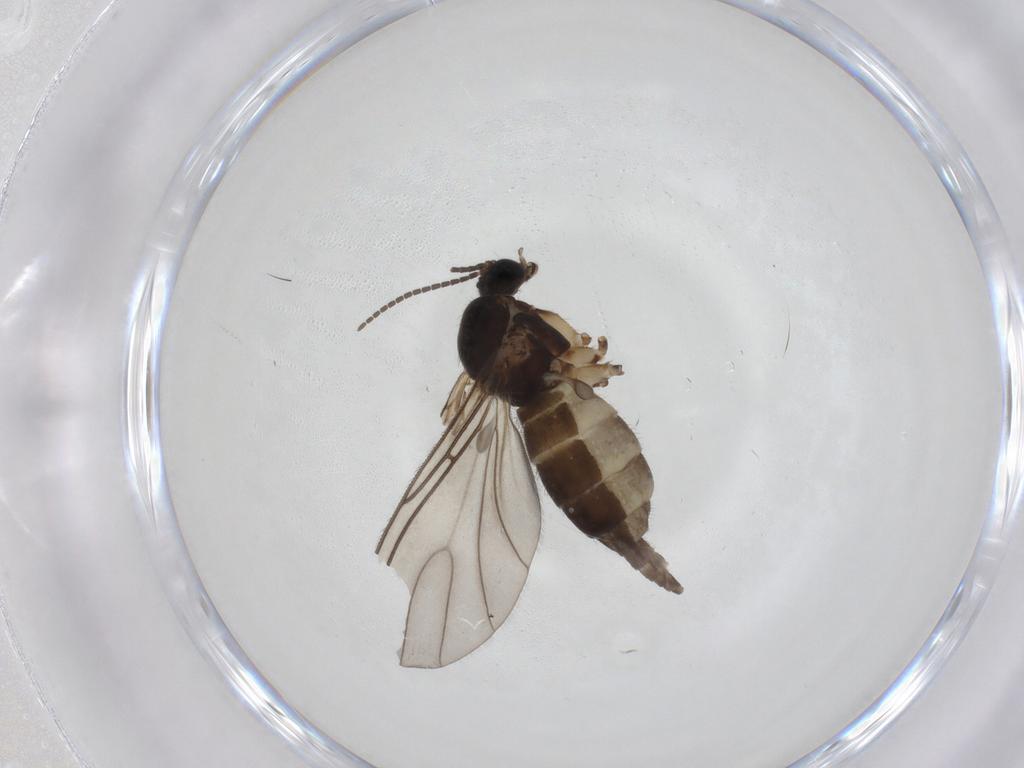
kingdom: Animalia
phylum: Arthropoda
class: Insecta
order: Diptera
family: Sciaridae
